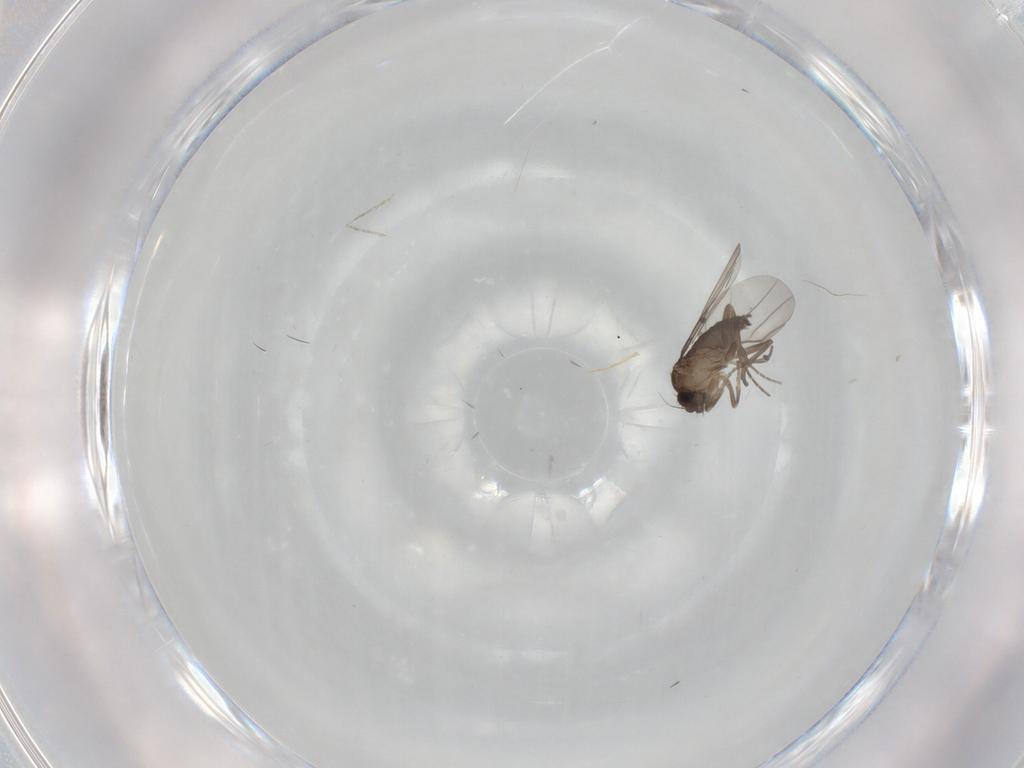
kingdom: Animalia
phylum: Arthropoda
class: Insecta
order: Diptera
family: Phoridae
